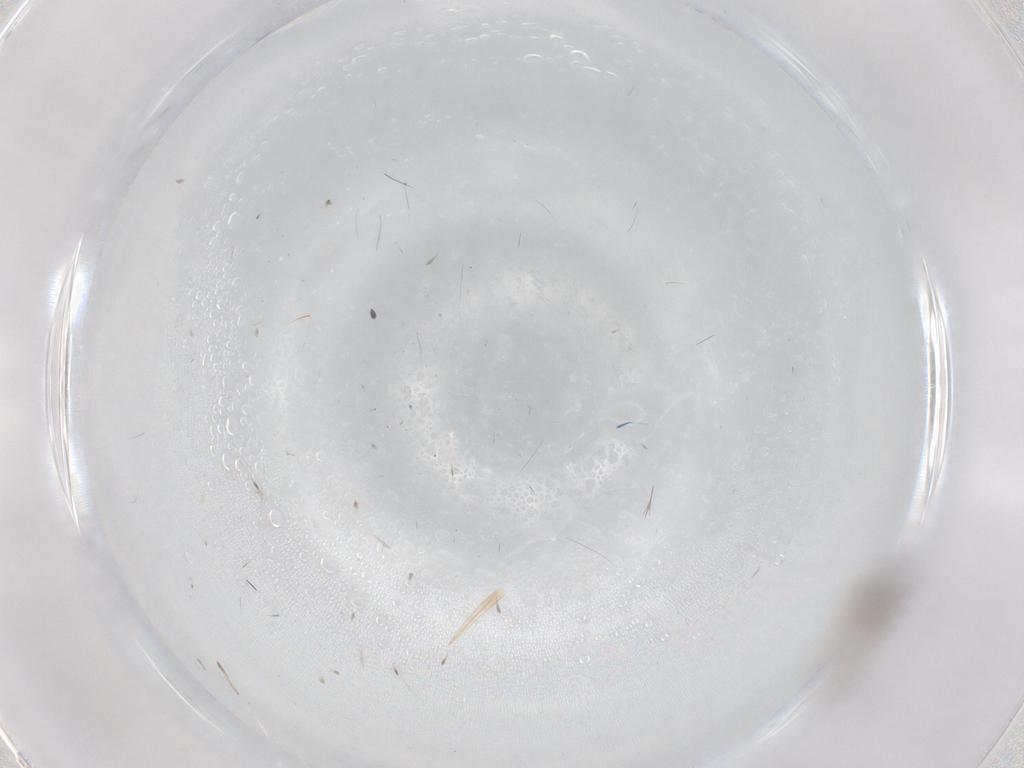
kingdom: Animalia
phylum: Arthropoda
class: Insecta
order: Diptera
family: Cecidomyiidae
